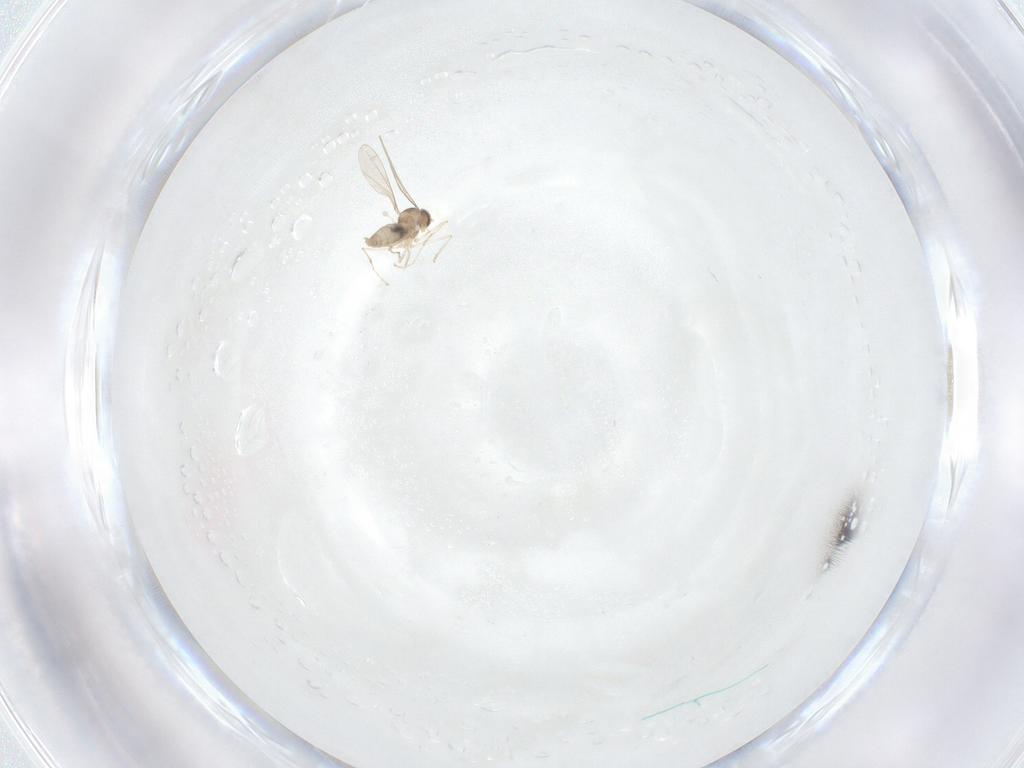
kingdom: Animalia
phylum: Arthropoda
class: Insecta
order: Diptera
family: Cecidomyiidae
